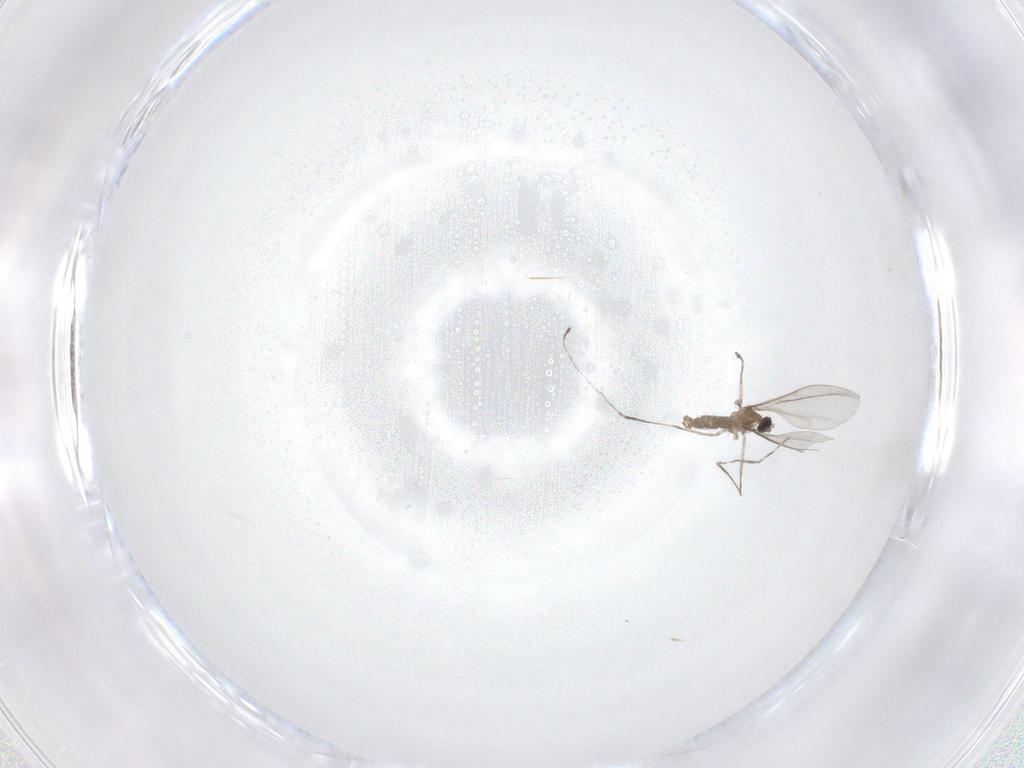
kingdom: Animalia
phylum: Arthropoda
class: Insecta
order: Diptera
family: Cecidomyiidae
